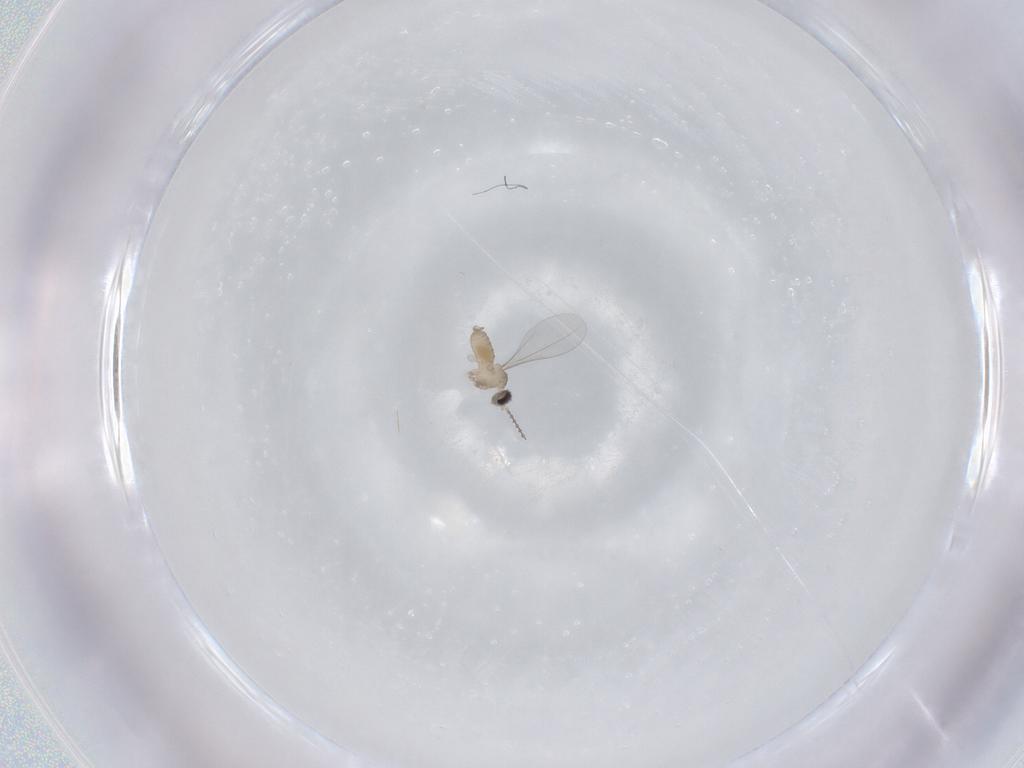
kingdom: Animalia
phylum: Arthropoda
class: Insecta
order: Diptera
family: Cecidomyiidae
